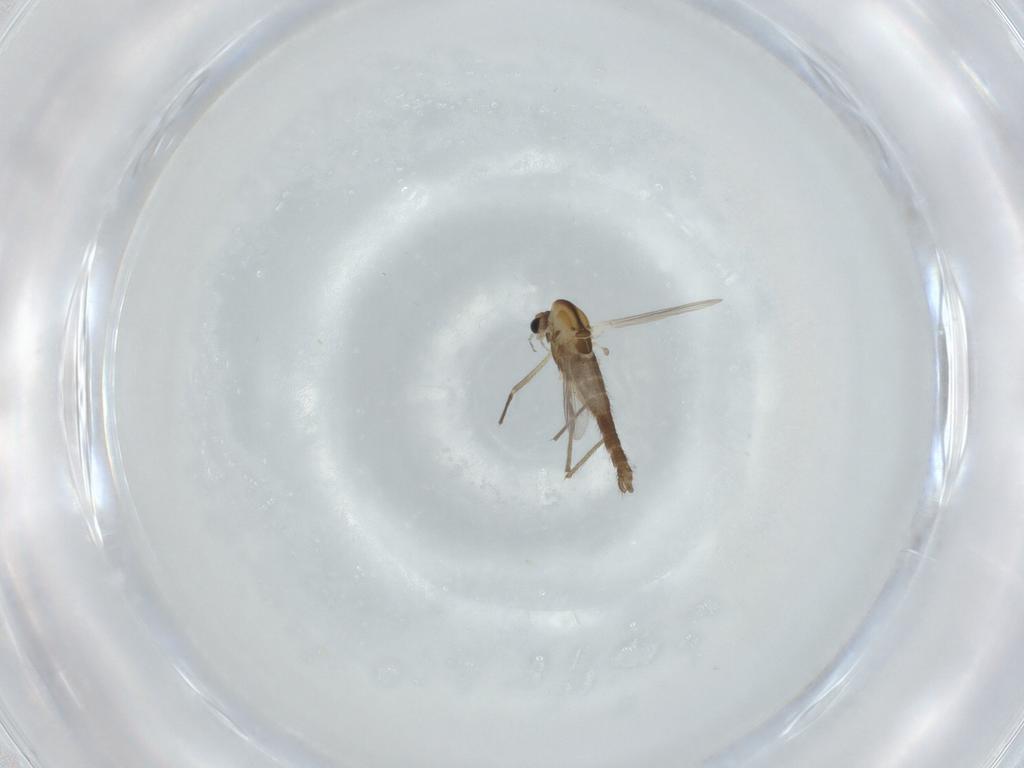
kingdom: Animalia
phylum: Arthropoda
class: Insecta
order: Diptera
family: Chironomidae
